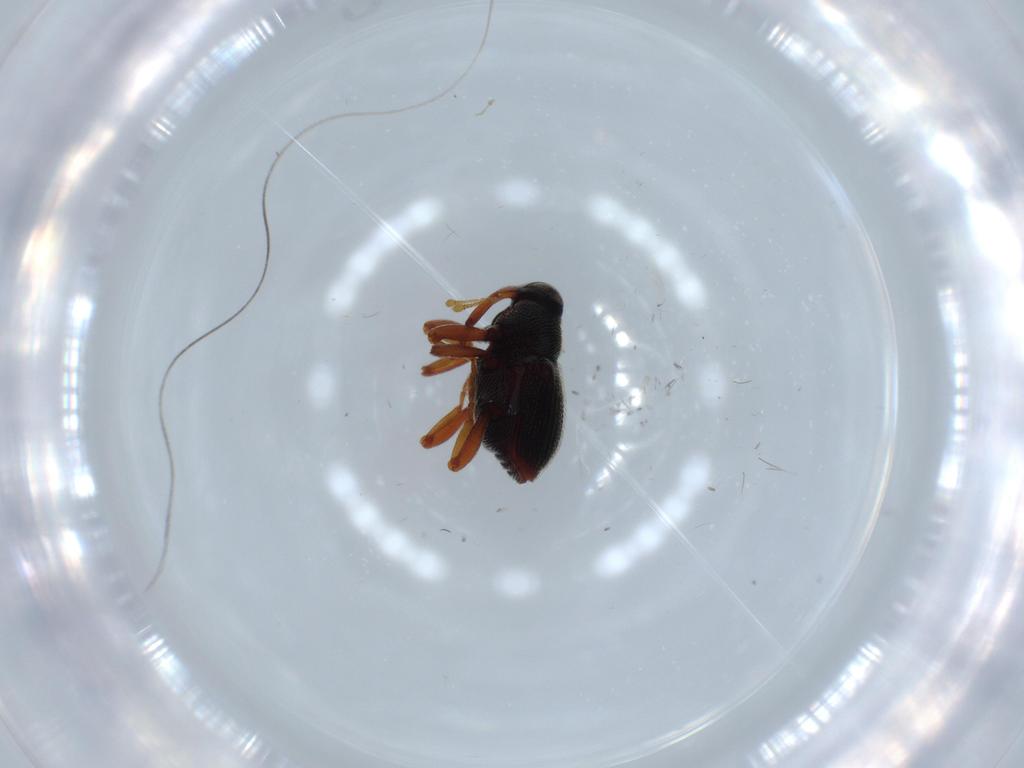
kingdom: Animalia
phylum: Arthropoda
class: Insecta
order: Coleoptera
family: Curculionidae
